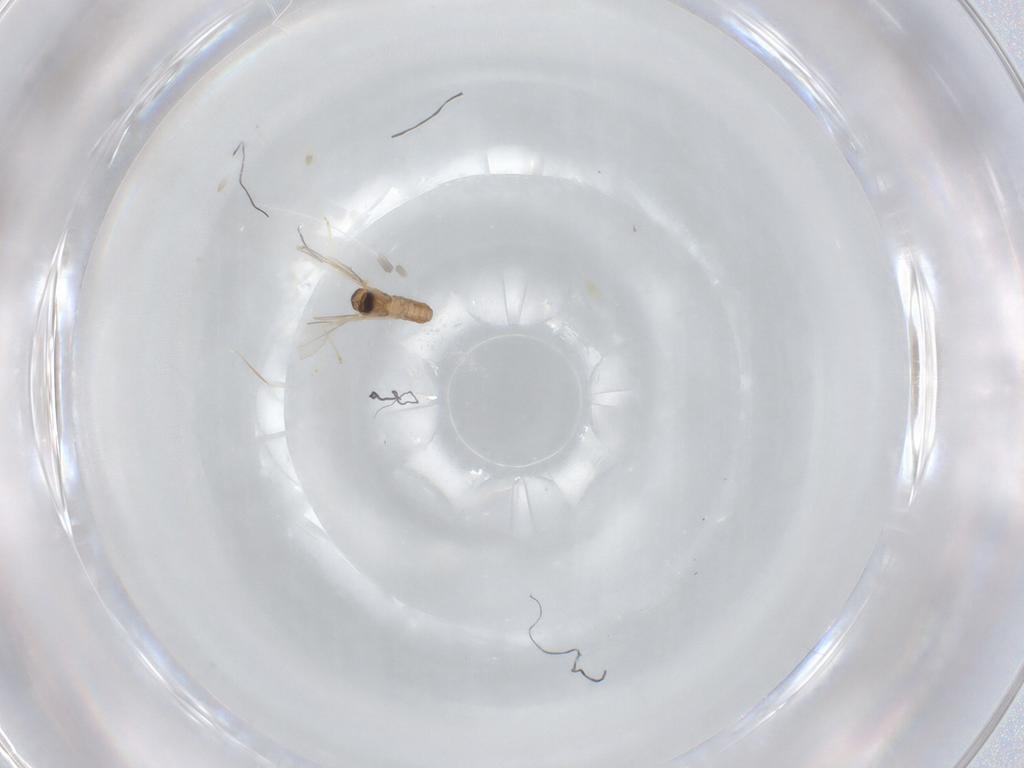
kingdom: Animalia
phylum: Arthropoda
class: Insecta
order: Diptera
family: Cecidomyiidae
